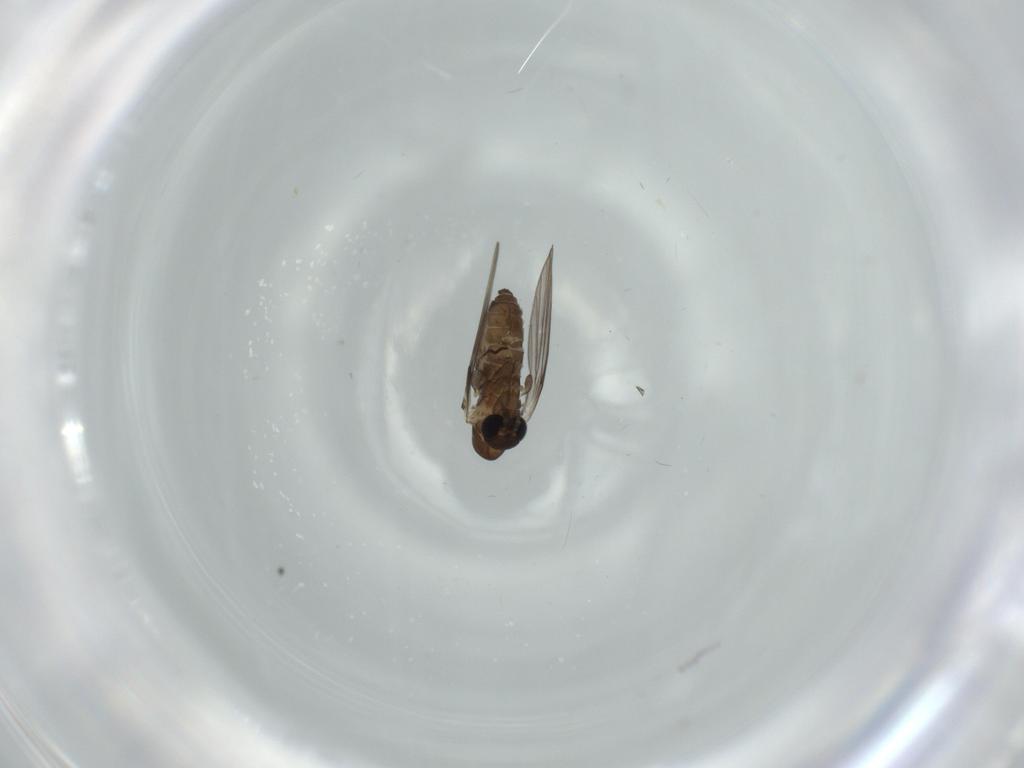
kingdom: Animalia
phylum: Arthropoda
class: Insecta
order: Diptera
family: Psychodidae
